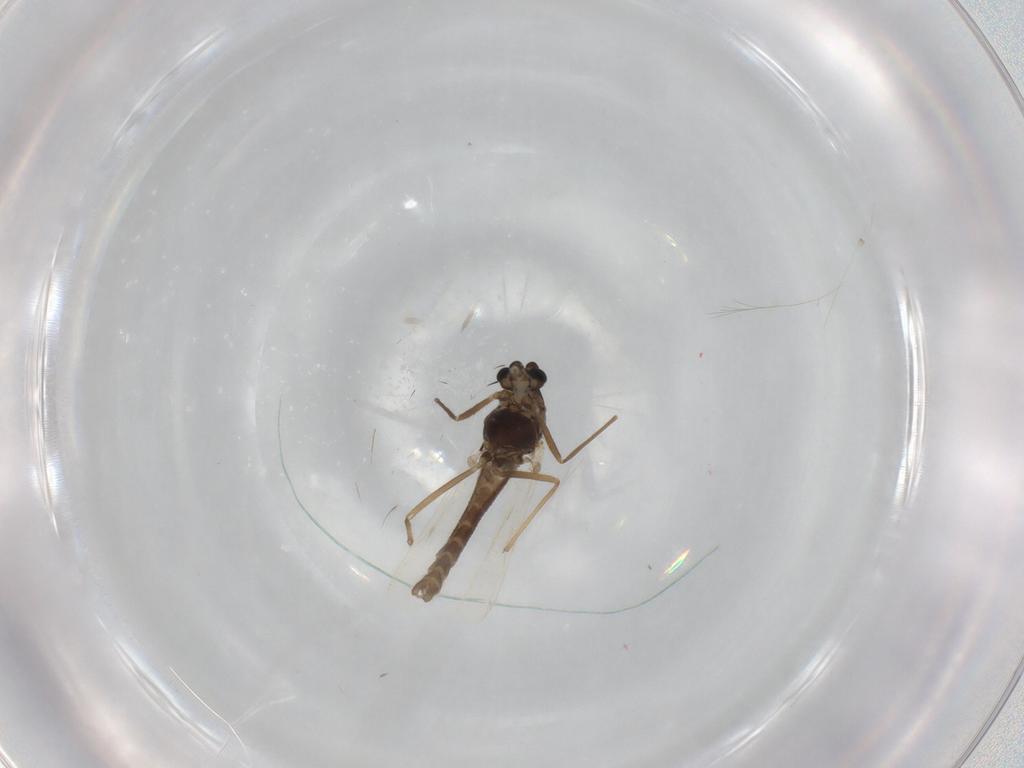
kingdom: Animalia
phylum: Arthropoda
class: Insecta
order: Diptera
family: Chironomidae
